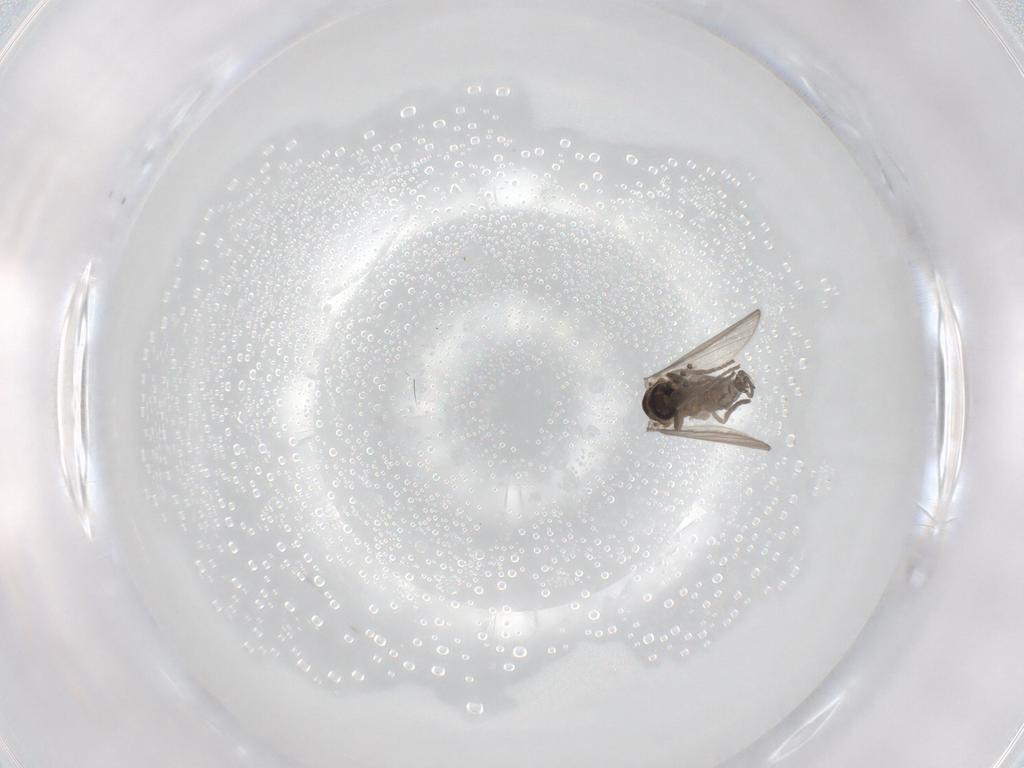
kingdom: Animalia
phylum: Arthropoda
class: Insecta
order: Diptera
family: Psychodidae
